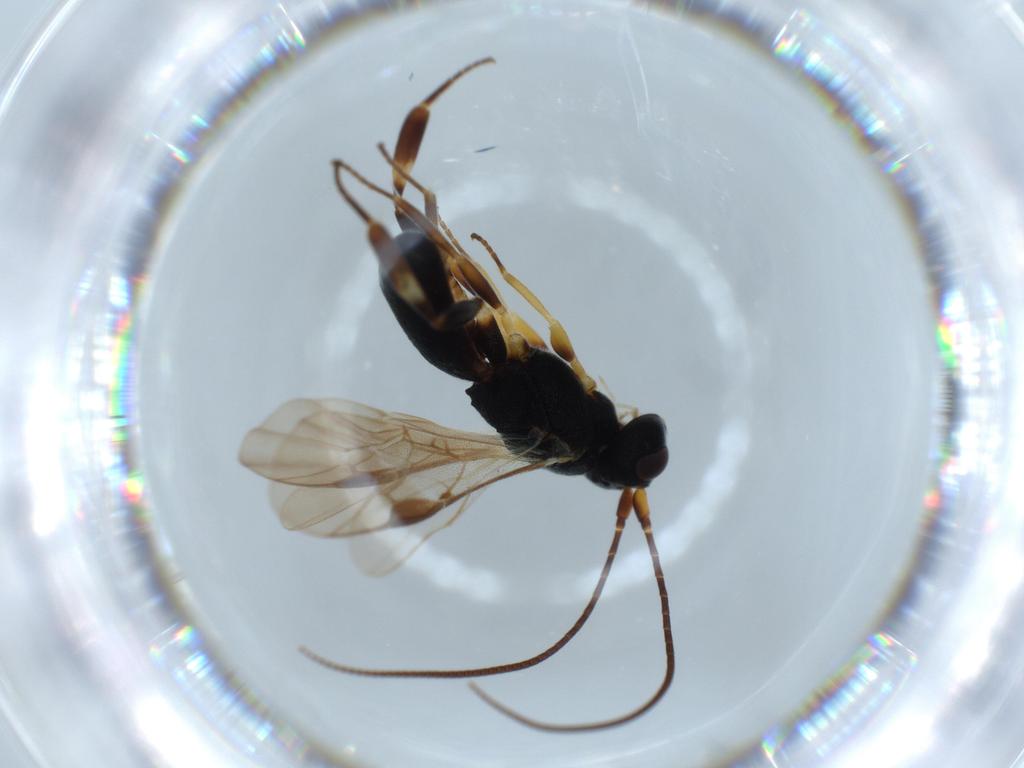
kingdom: Animalia
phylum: Arthropoda
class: Insecta
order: Hymenoptera
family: Braconidae
